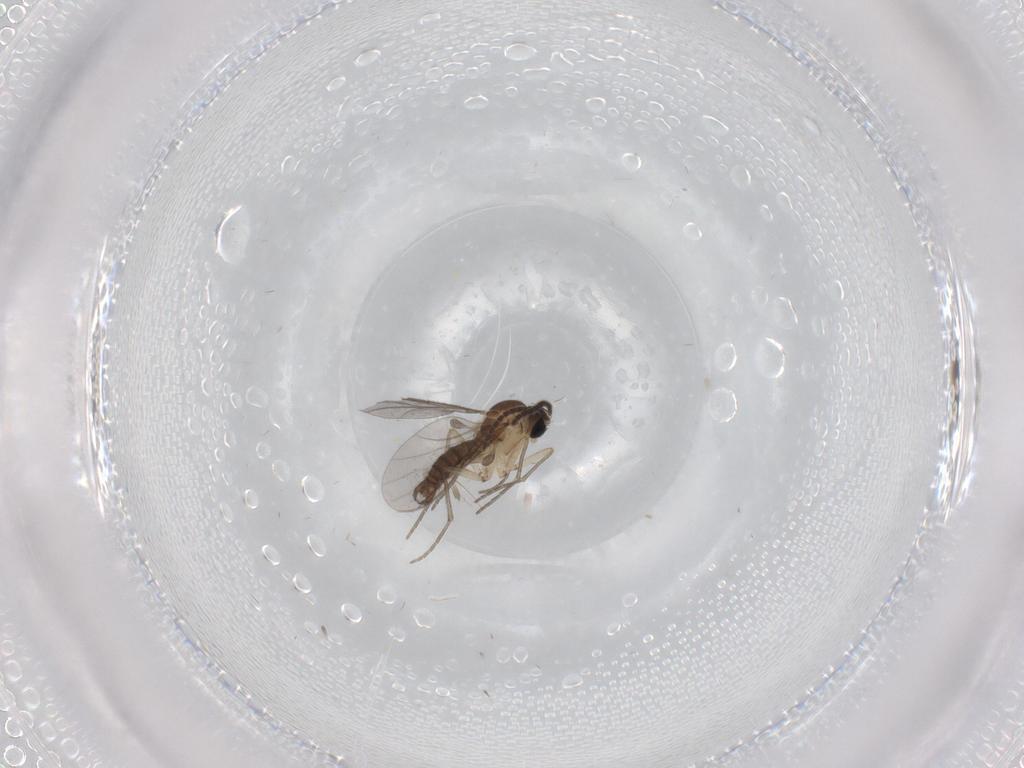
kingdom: Animalia
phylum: Arthropoda
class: Insecta
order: Diptera
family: Sciaridae
